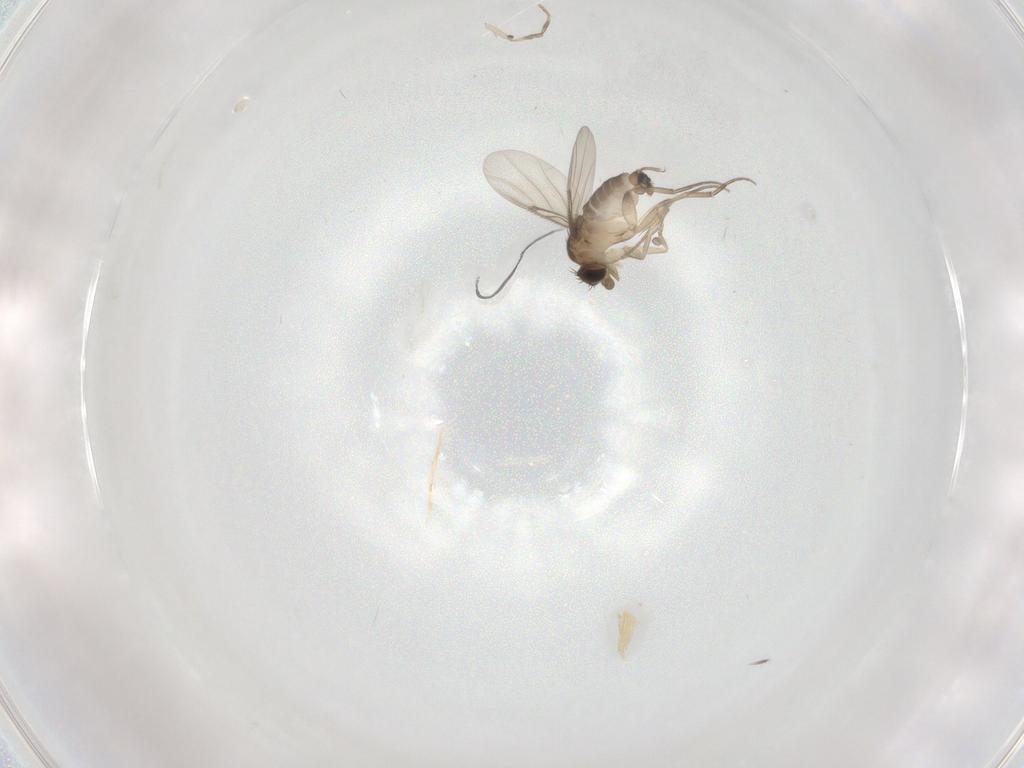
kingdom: Animalia
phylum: Arthropoda
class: Insecta
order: Diptera
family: Phoridae
